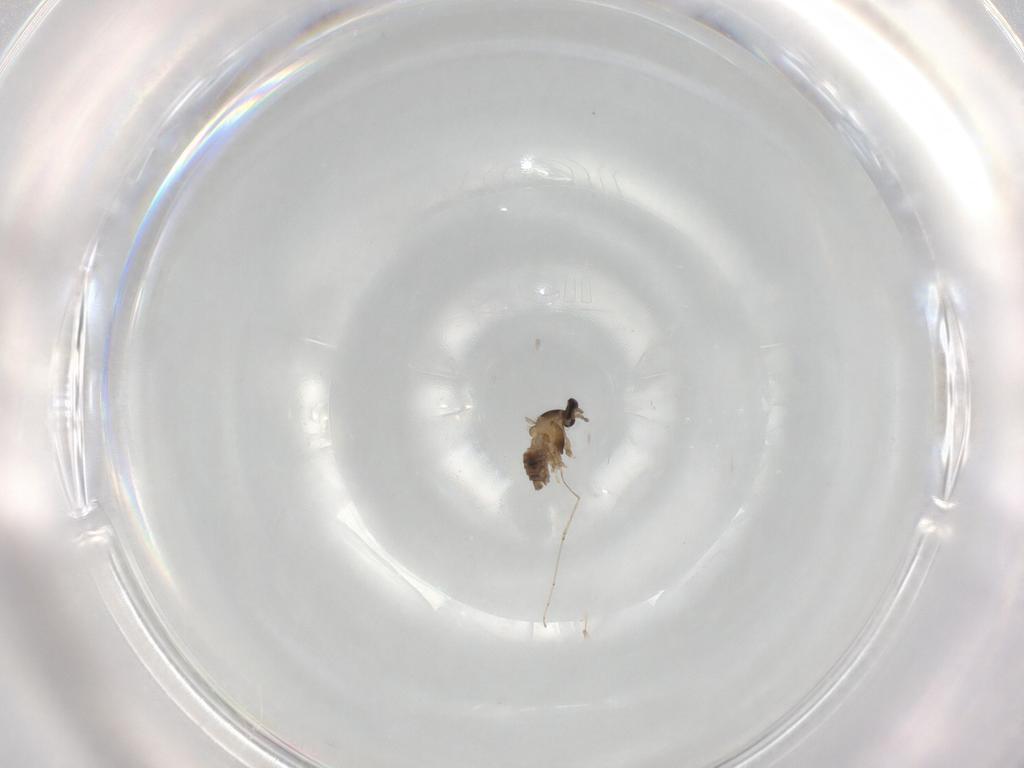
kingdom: Animalia
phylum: Arthropoda
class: Insecta
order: Diptera
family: Cecidomyiidae
